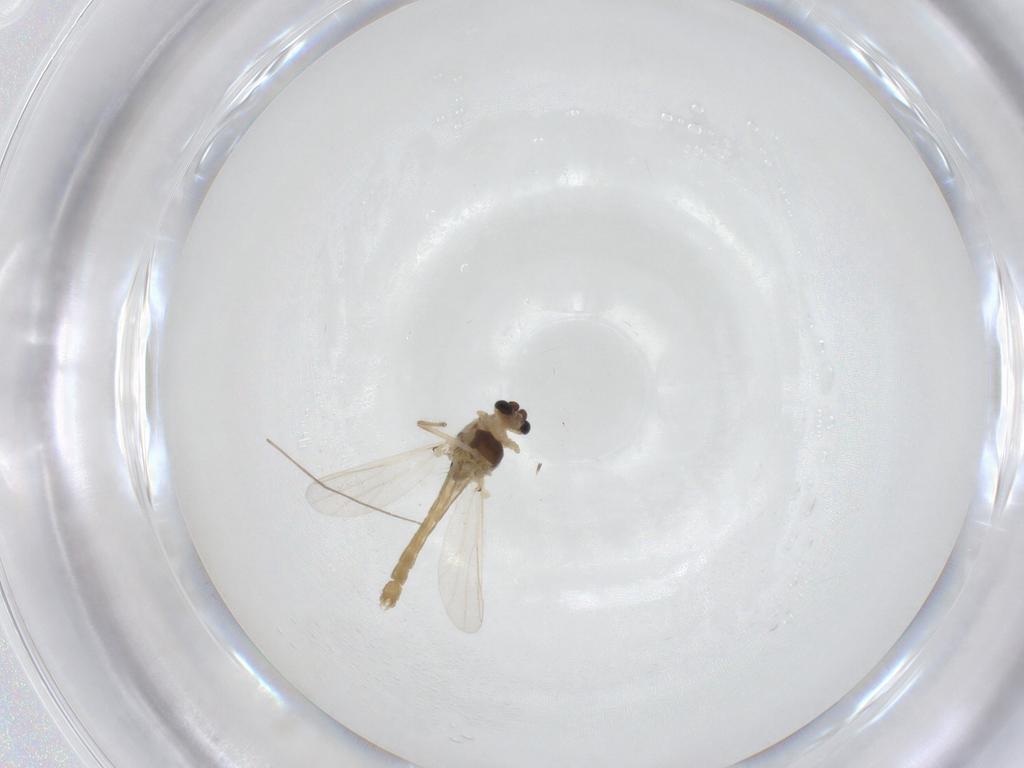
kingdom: Animalia
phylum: Arthropoda
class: Insecta
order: Diptera
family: Chironomidae
